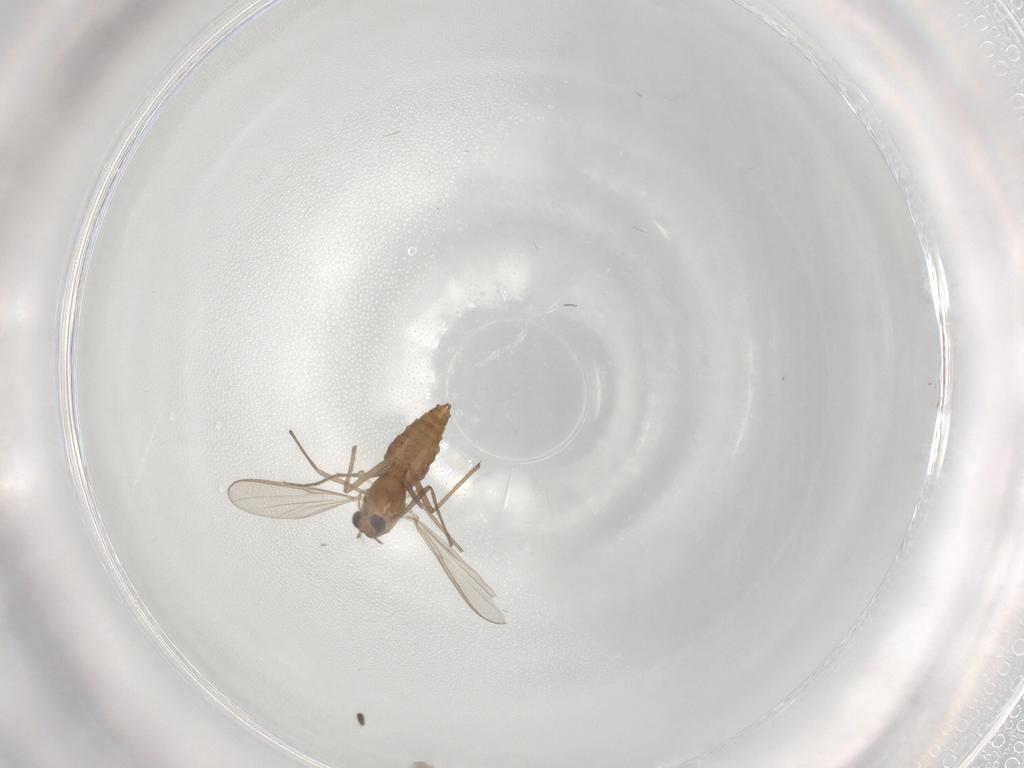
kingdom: Animalia
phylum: Arthropoda
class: Insecta
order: Diptera
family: Chironomidae
